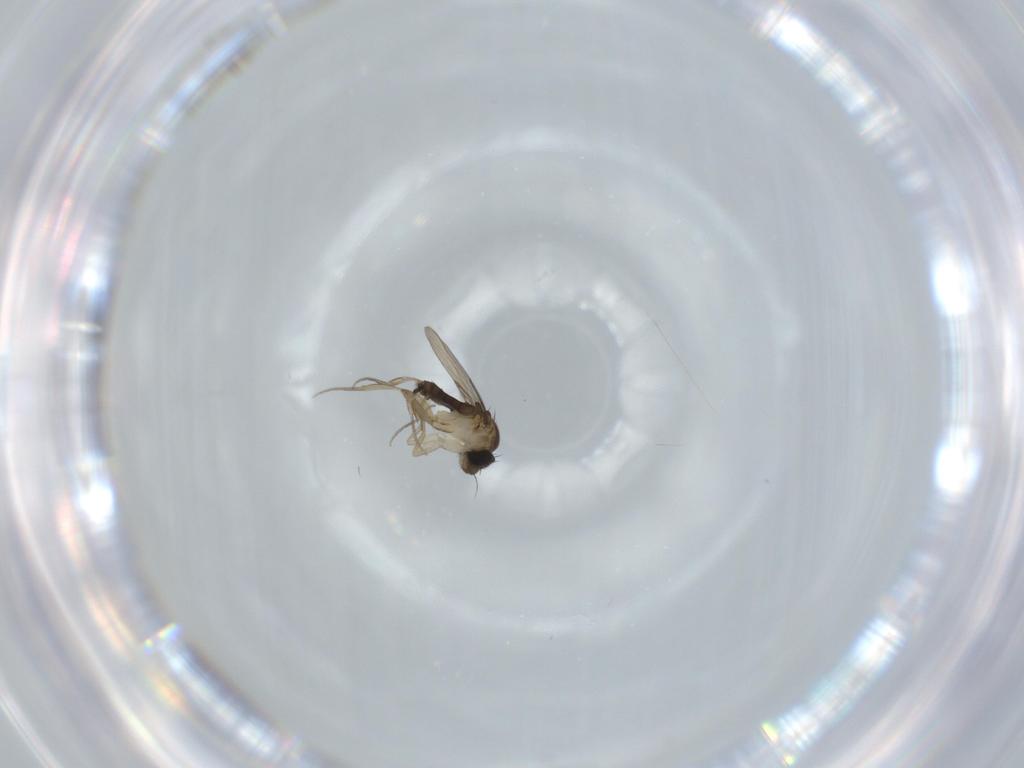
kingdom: Animalia
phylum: Arthropoda
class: Insecta
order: Diptera
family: Phoridae
